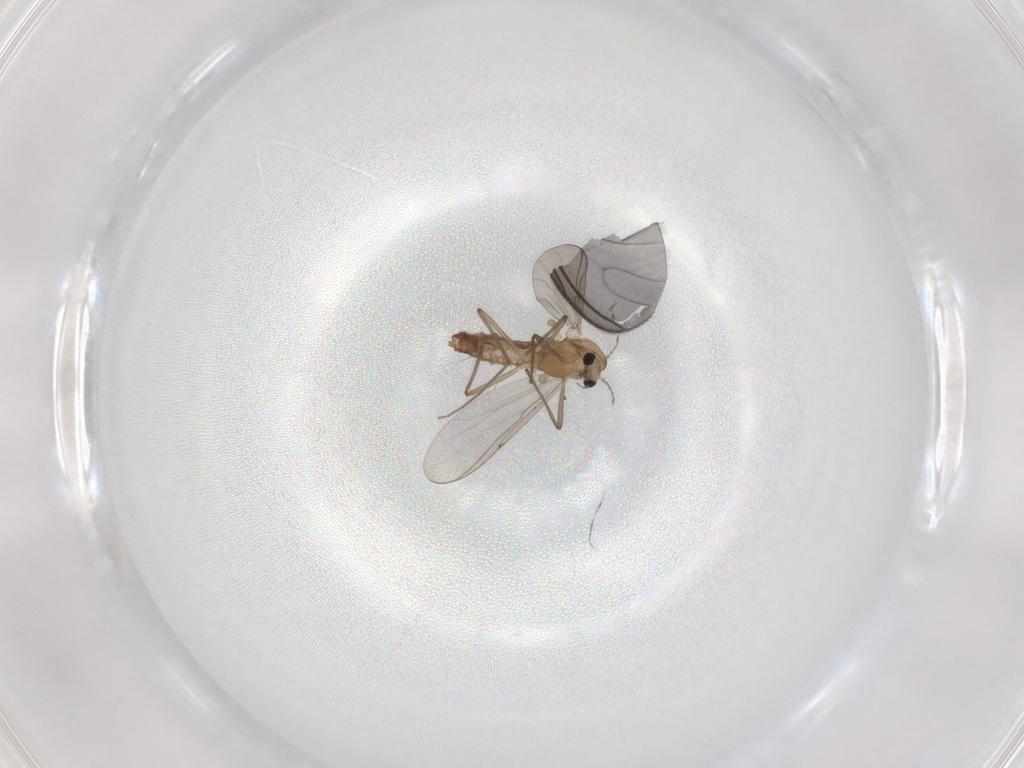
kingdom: Animalia
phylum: Arthropoda
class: Insecta
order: Diptera
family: Chironomidae
